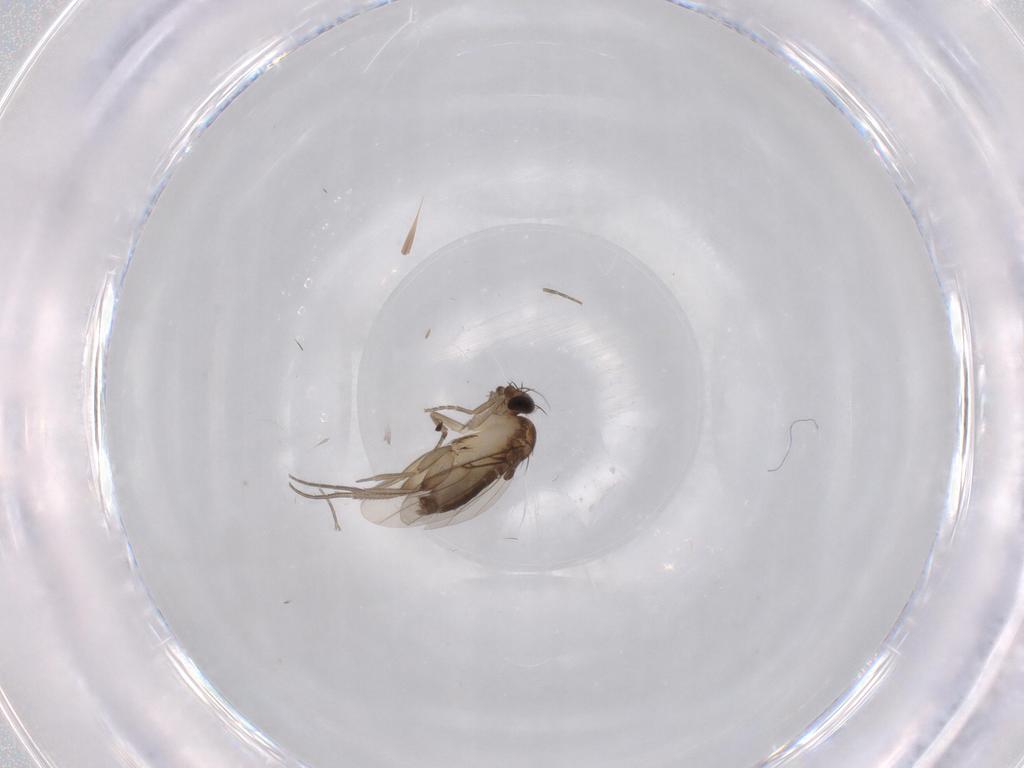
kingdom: Animalia
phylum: Arthropoda
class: Insecta
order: Diptera
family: Phoridae
